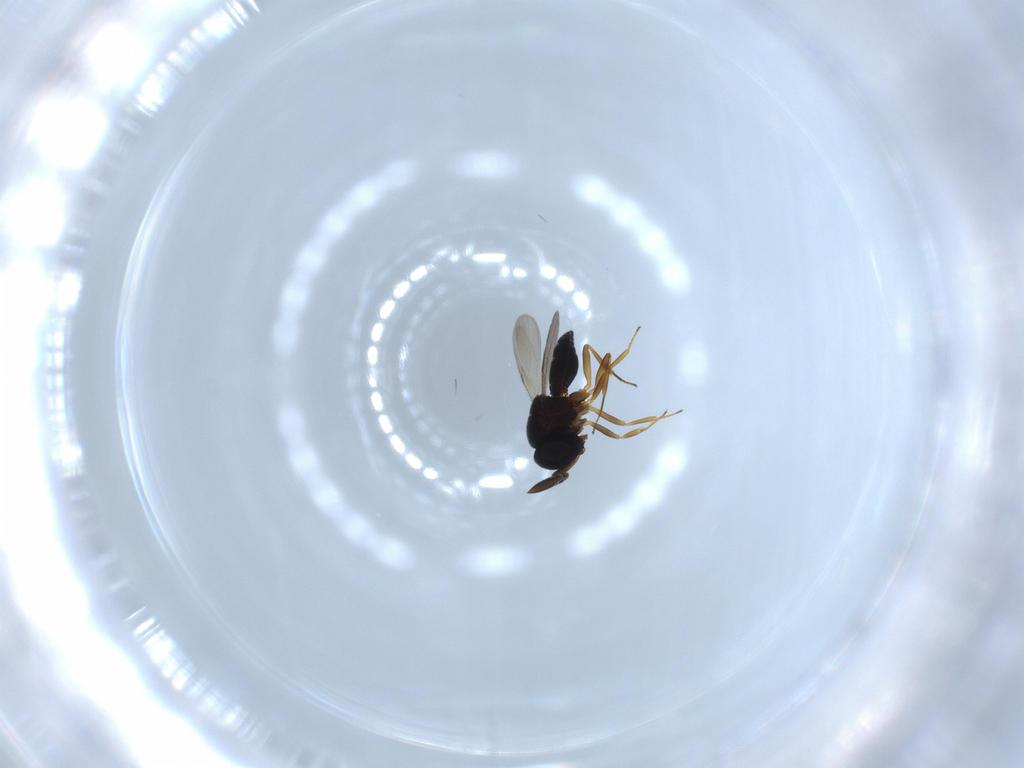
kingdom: Animalia
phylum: Arthropoda
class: Insecta
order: Coleoptera
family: Curculionidae
